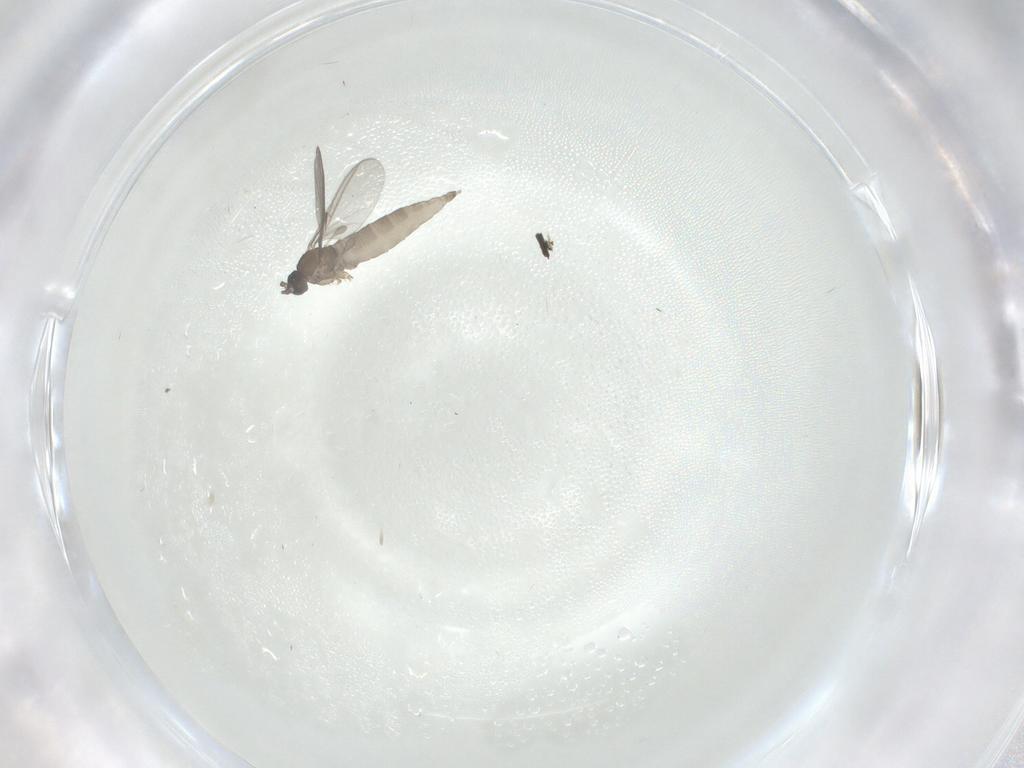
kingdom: Animalia
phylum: Arthropoda
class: Insecta
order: Diptera
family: Sciaridae
